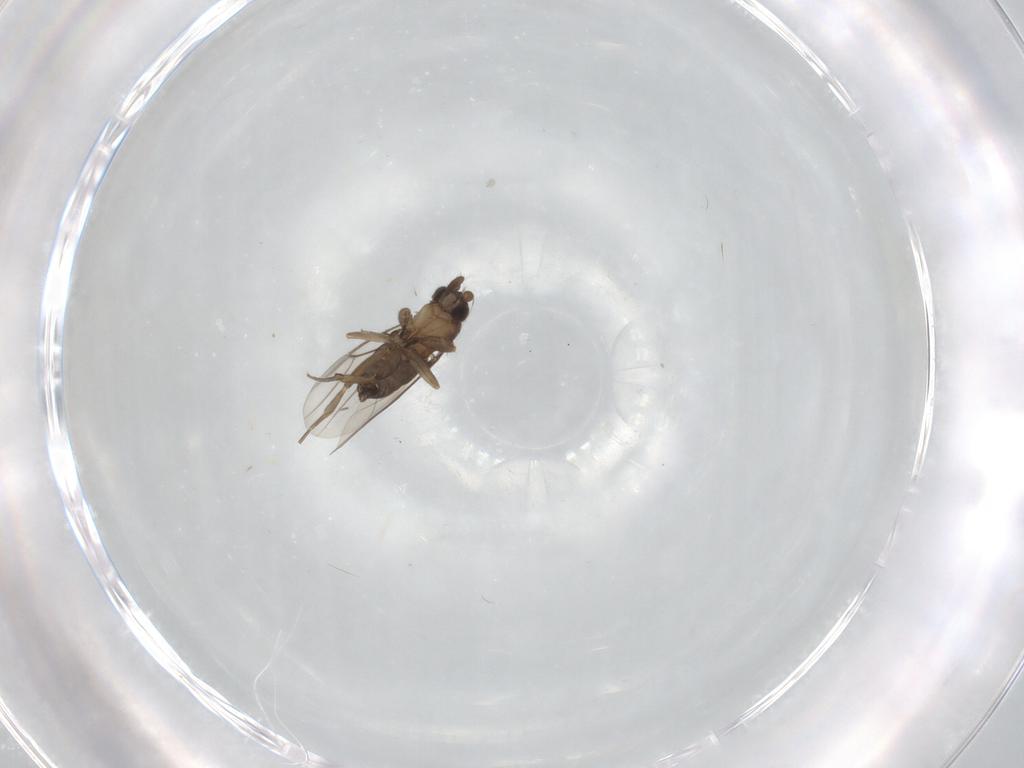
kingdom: Animalia
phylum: Arthropoda
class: Insecta
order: Diptera
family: Drosophilidae
